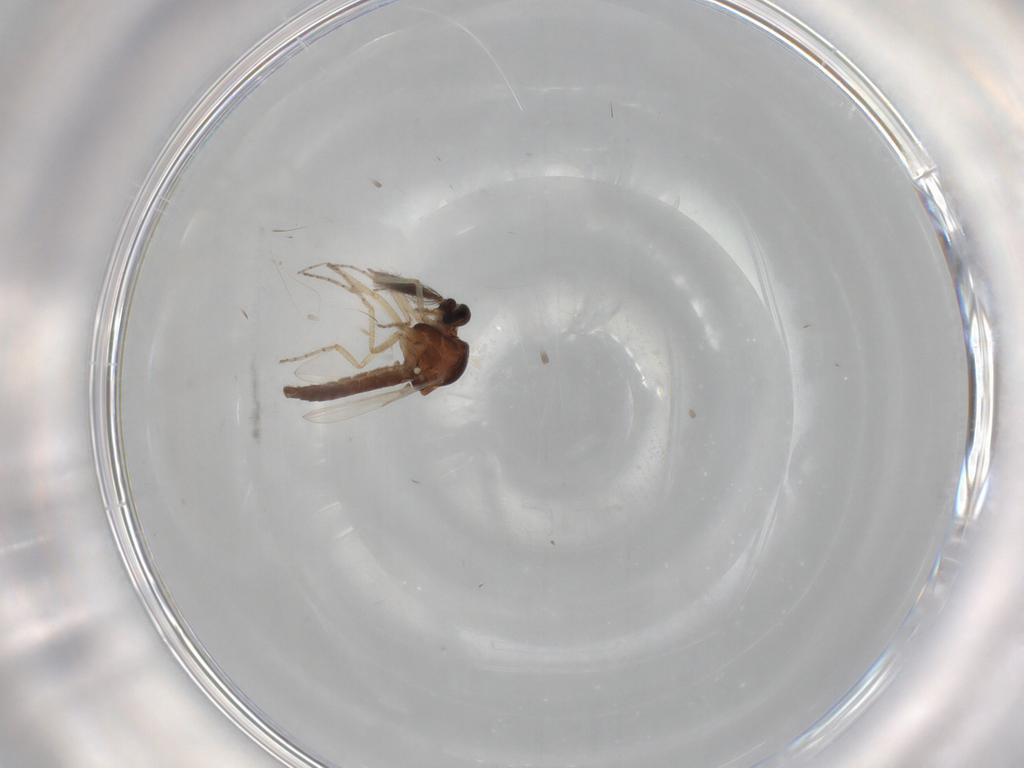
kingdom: Animalia
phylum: Arthropoda
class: Insecta
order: Diptera
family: Ceratopogonidae
